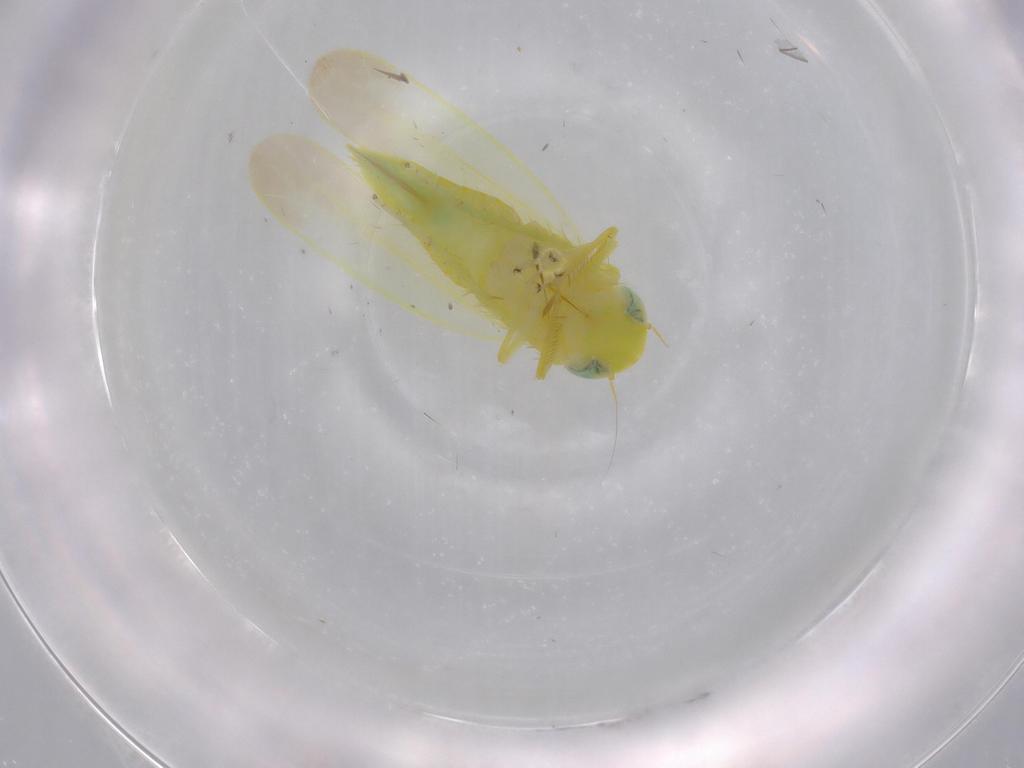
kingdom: Animalia
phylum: Arthropoda
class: Insecta
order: Hemiptera
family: Cicadellidae
